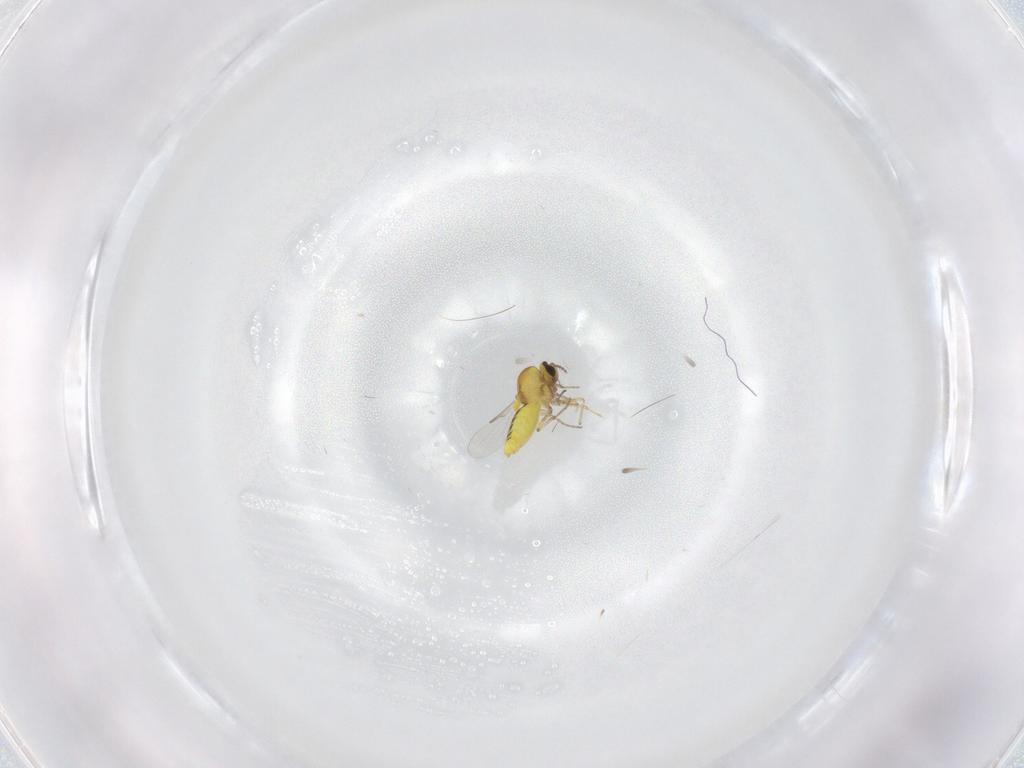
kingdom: Animalia
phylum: Arthropoda
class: Insecta
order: Diptera
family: Ceratopogonidae
